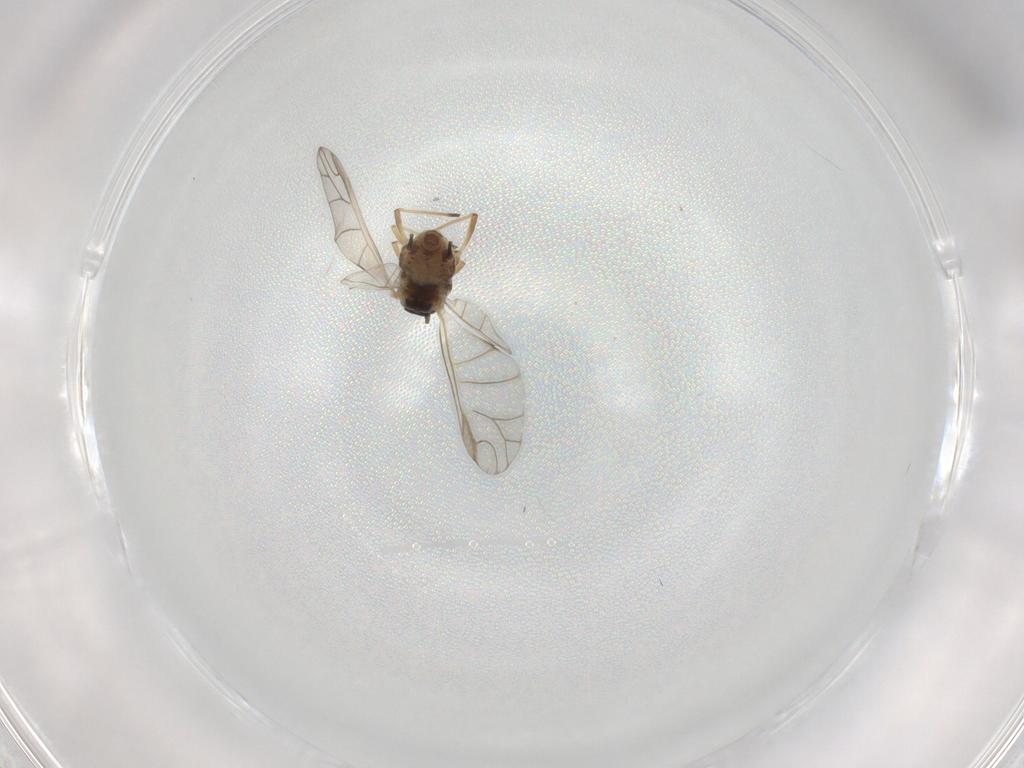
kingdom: Animalia
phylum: Arthropoda
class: Insecta
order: Hemiptera
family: Aphididae
